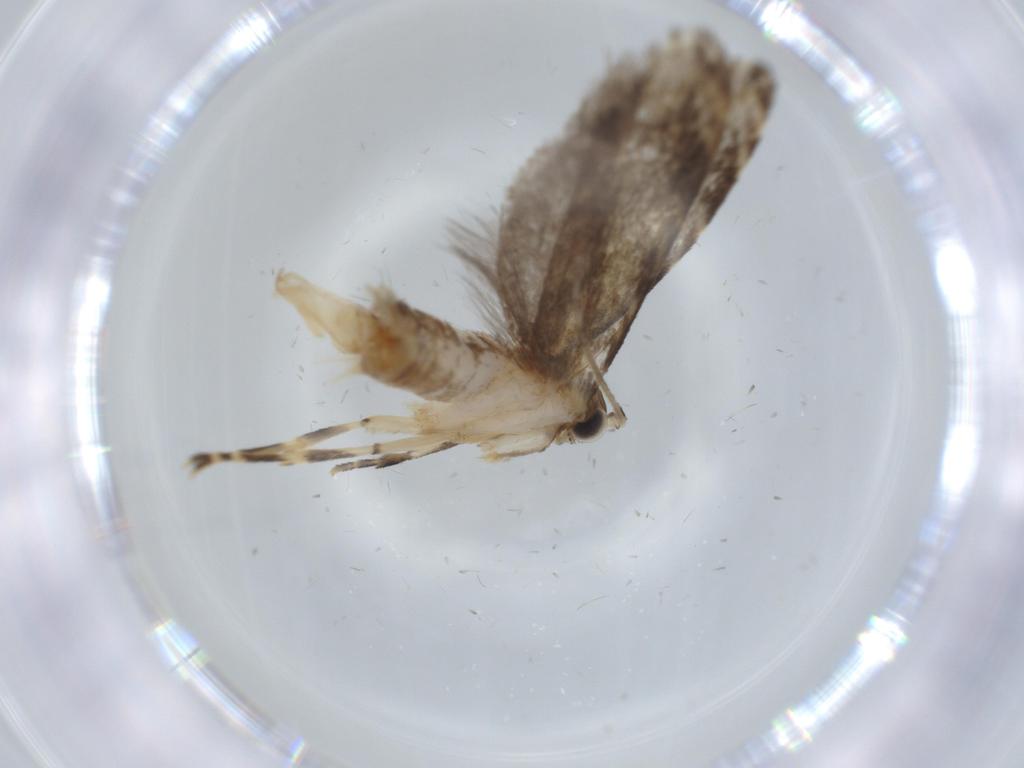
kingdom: Animalia
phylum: Arthropoda
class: Insecta
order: Lepidoptera
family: Tineidae
